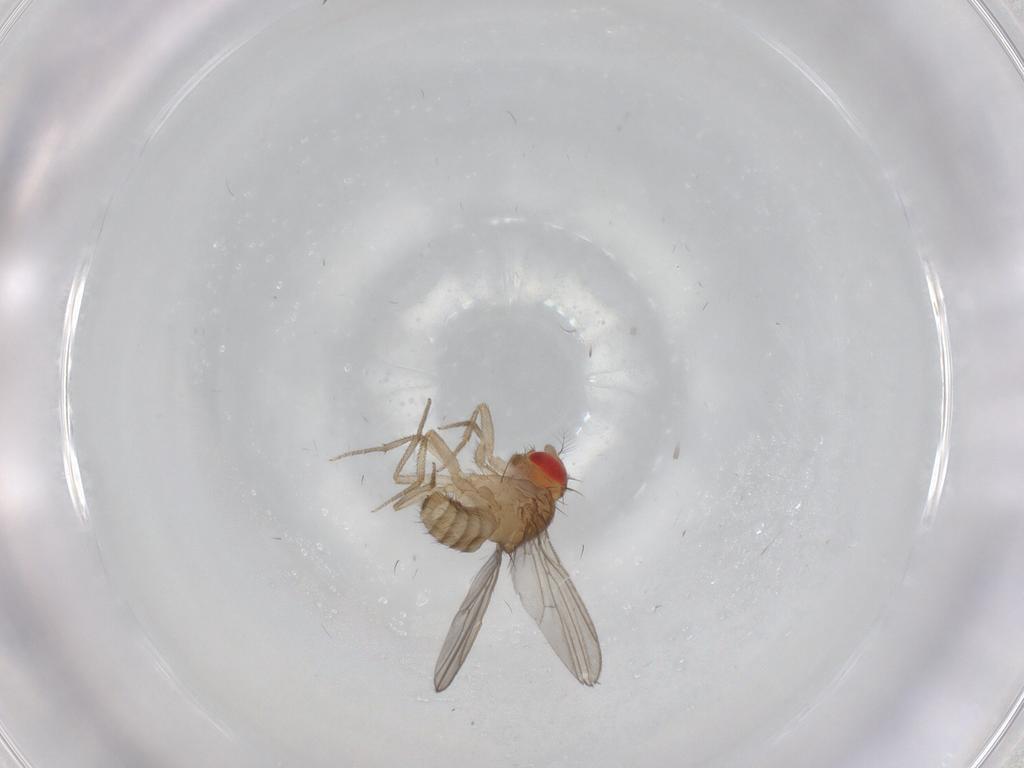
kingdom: Animalia
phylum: Arthropoda
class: Insecta
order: Diptera
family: Drosophilidae
